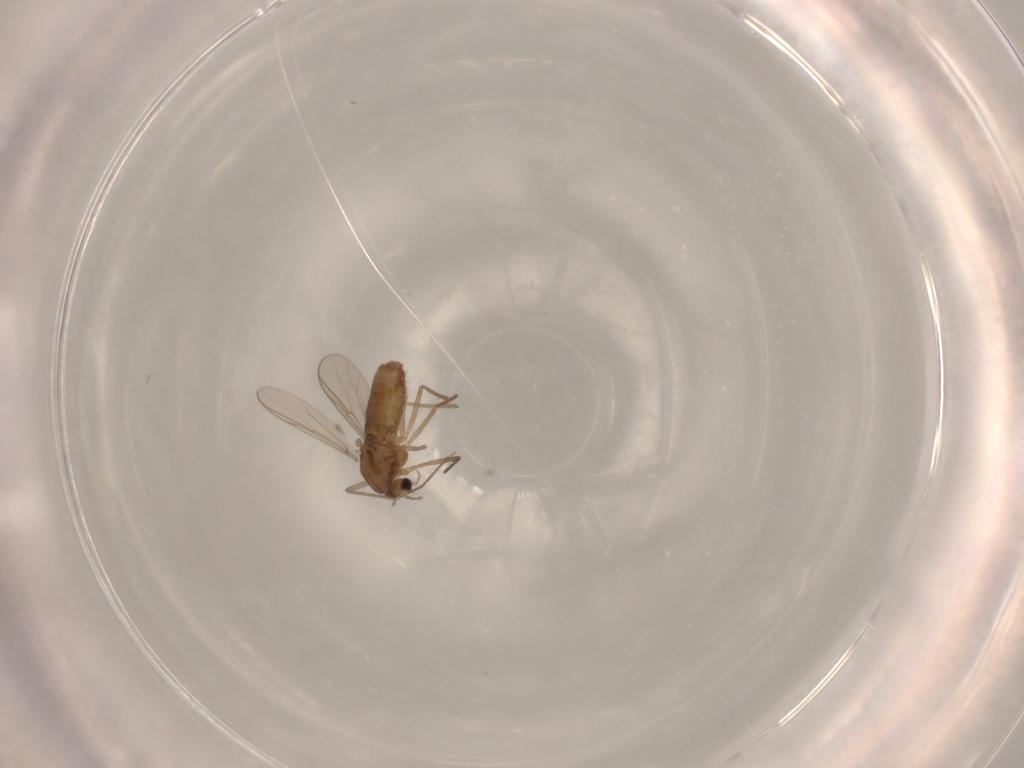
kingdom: Animalia
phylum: Arthropoda
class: Insecta
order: Diptera
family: Chironomidae
